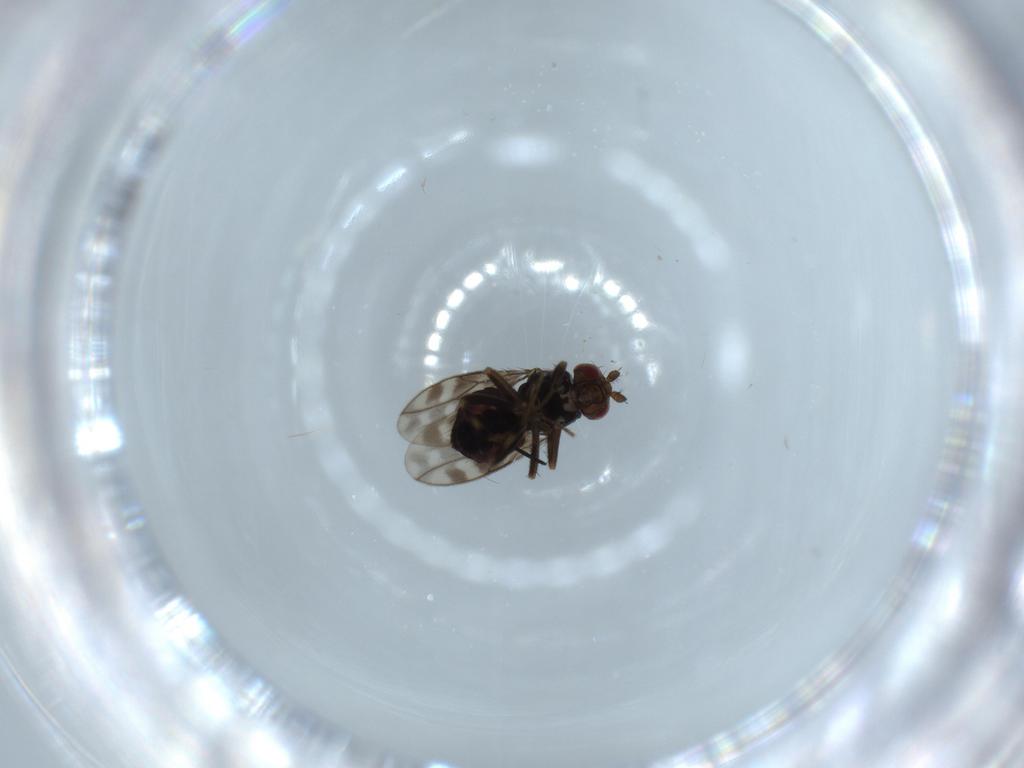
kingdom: Animalia
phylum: Arthropoda
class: Insecta
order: Diptera
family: Sphaeroceridae
